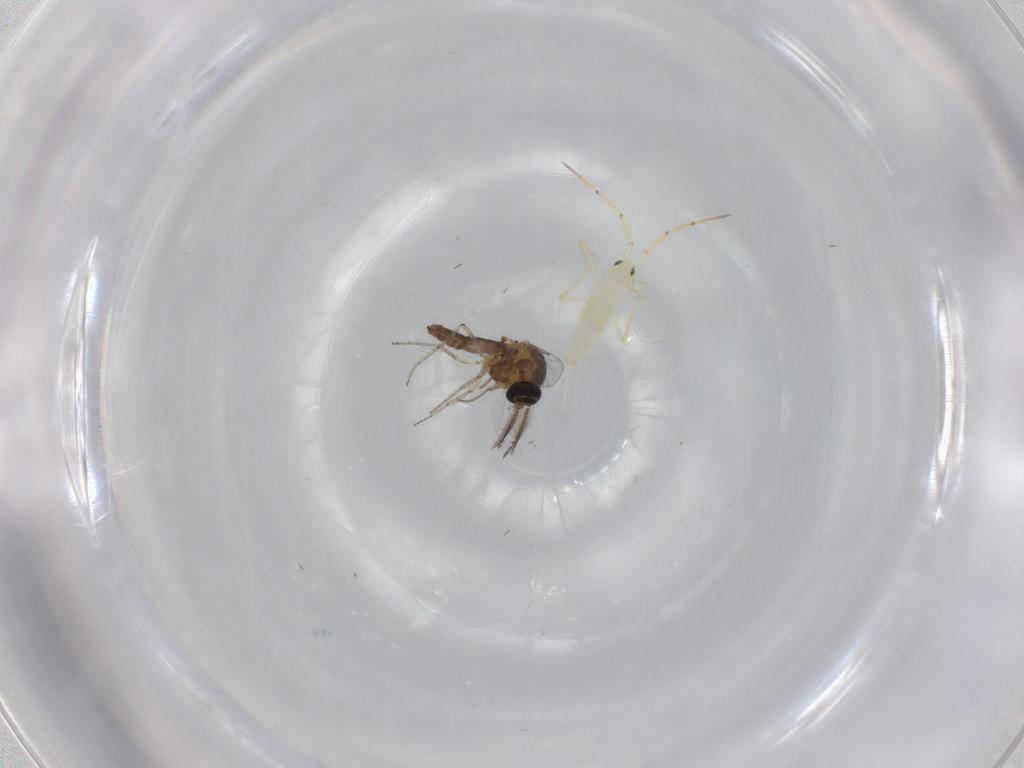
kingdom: Animalia
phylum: Arthropoda
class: Insecta
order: Diptera
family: Ceratopogonidae
